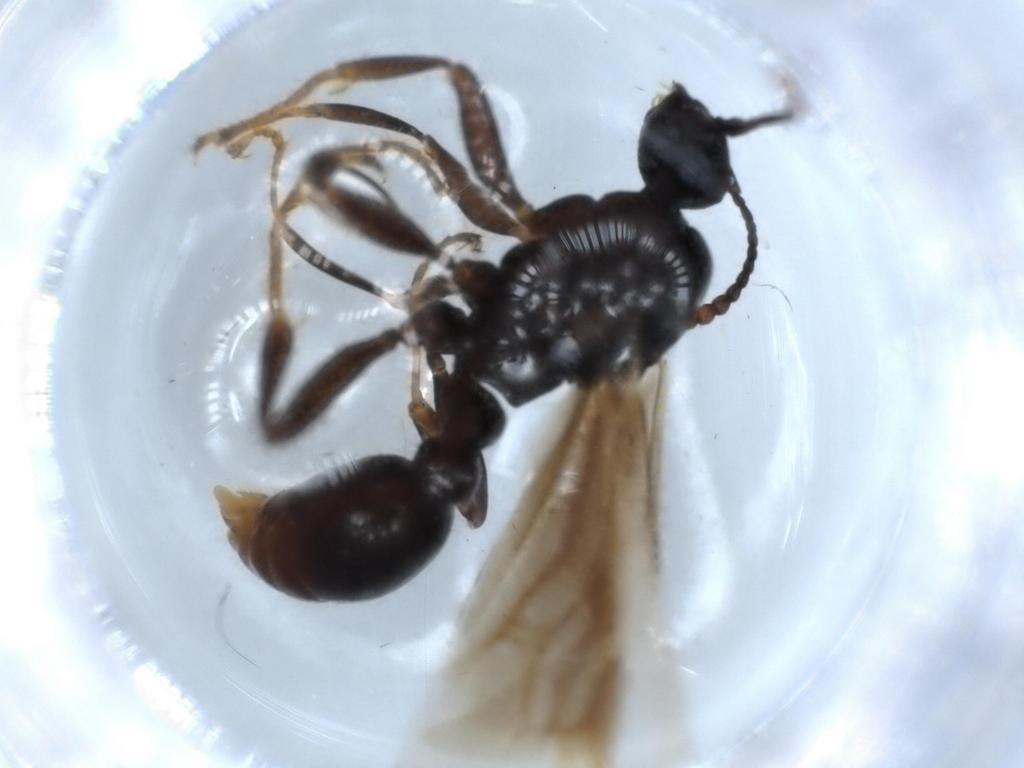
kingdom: Animalia
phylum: Arthropoda
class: Insecta
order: Hymenoptera
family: Formicidae
